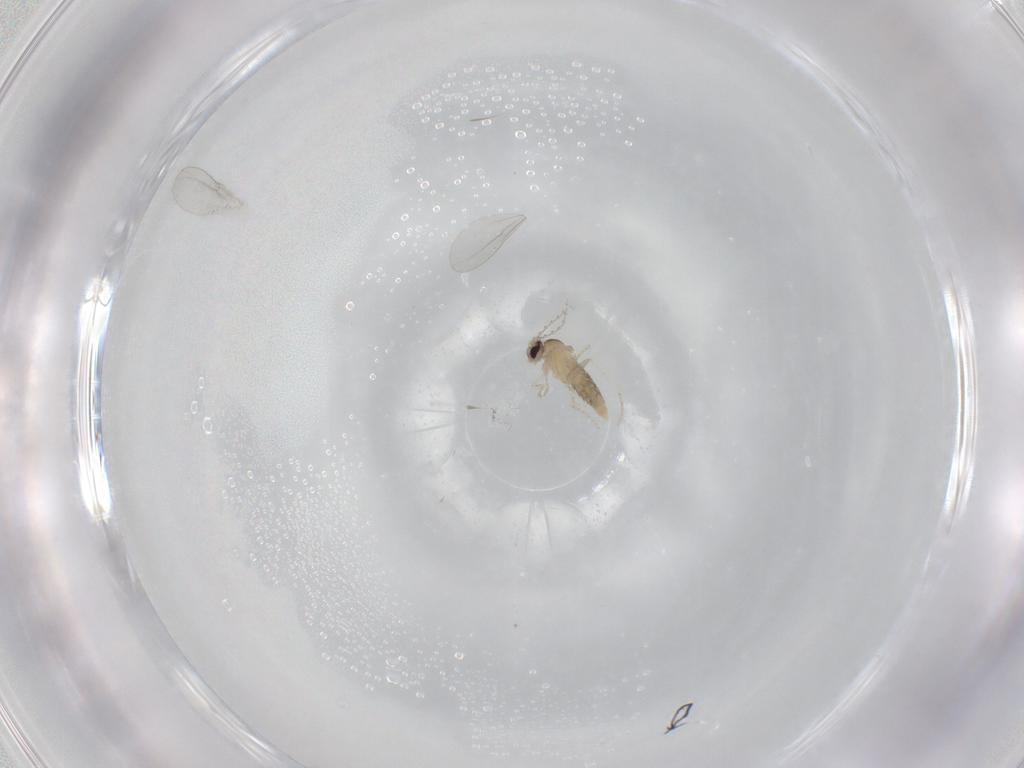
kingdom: Animalia
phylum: Arthropoda
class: Insecta
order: Diptera
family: Cecidomyiidae
